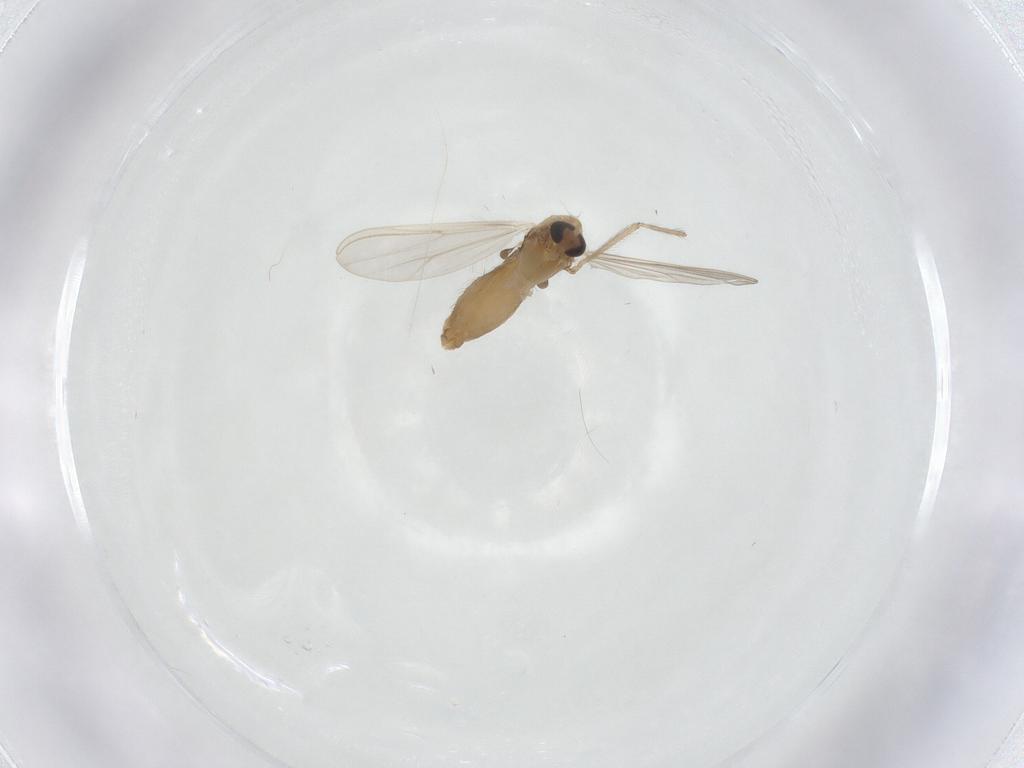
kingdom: Animalia
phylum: Arthropoda
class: Insecta
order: Diptera
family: Chironomidae
